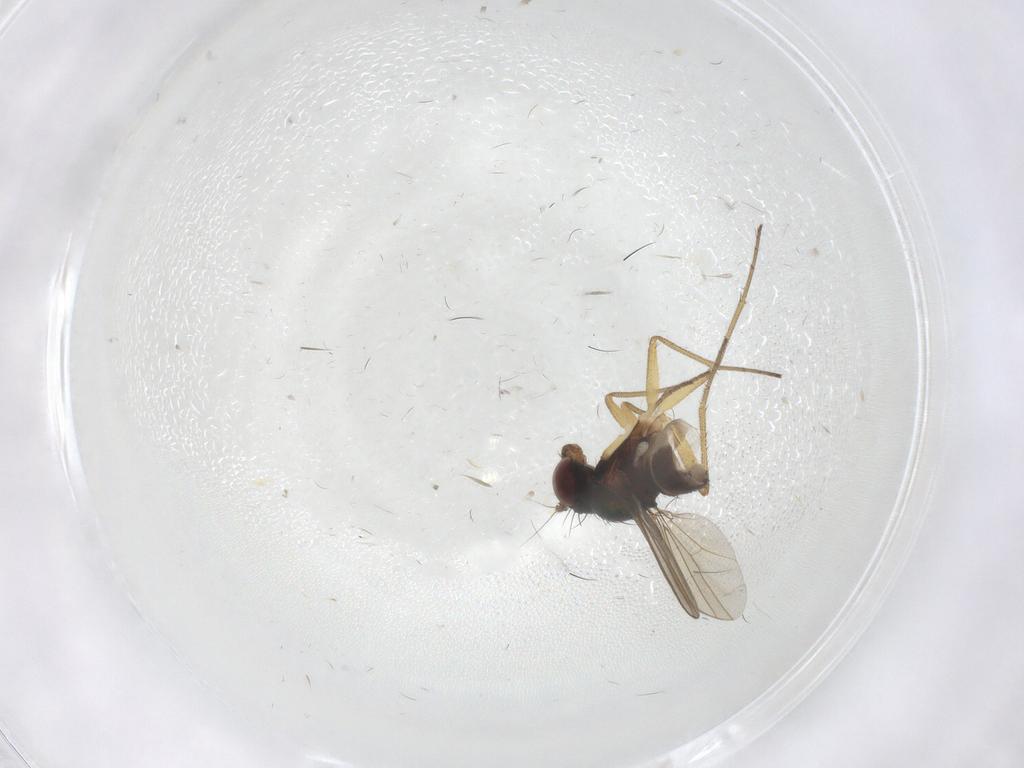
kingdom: Animalia
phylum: Arthropoda
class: Insecta
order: Diptera
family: Dolichopodidae
